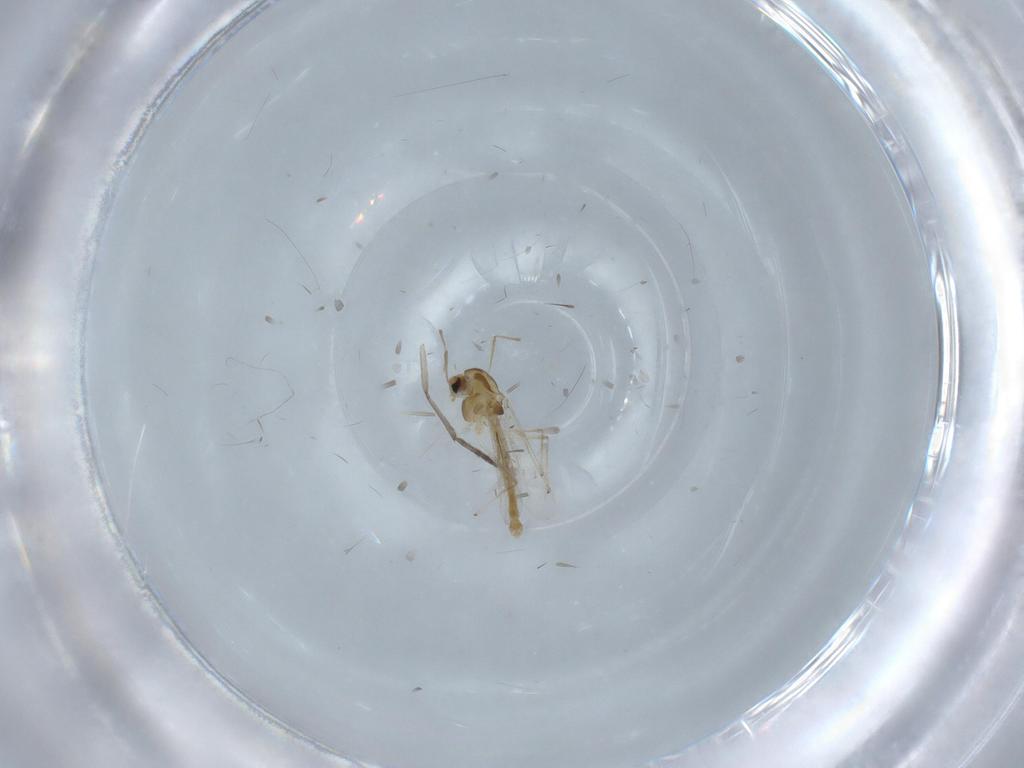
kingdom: Animalia
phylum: Arthropoda
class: Insecta
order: Diptera
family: Chironomidae
